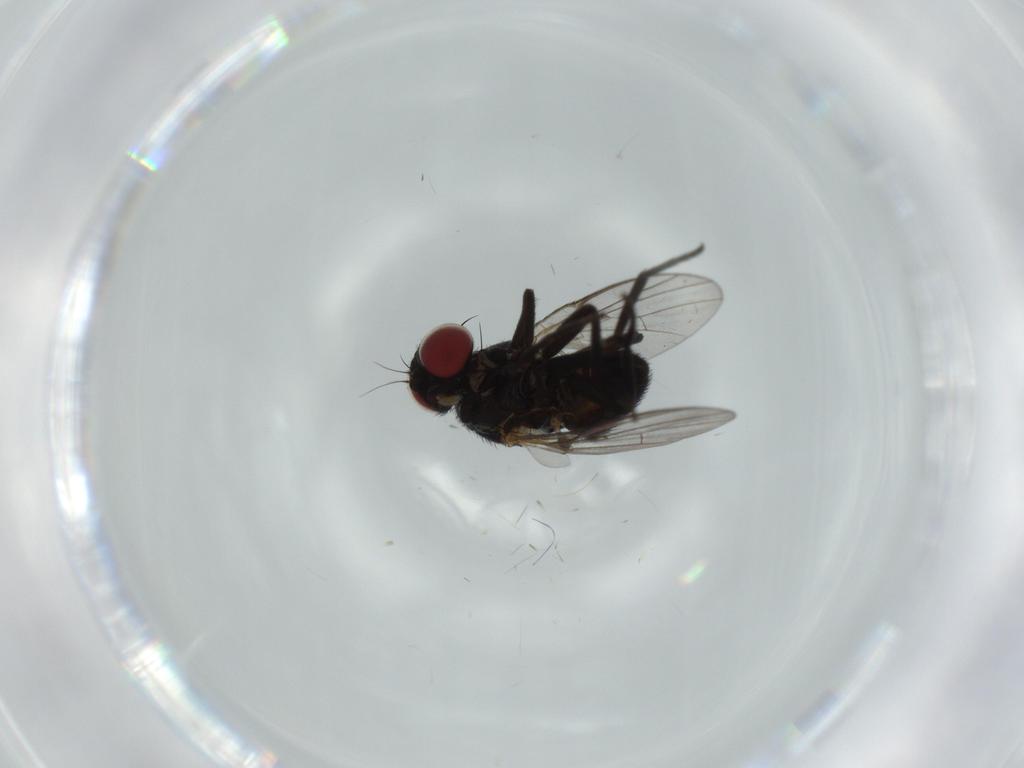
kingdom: Animalia
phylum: Arthropoda
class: Insecta
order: Diptera
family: Agromyzidae
